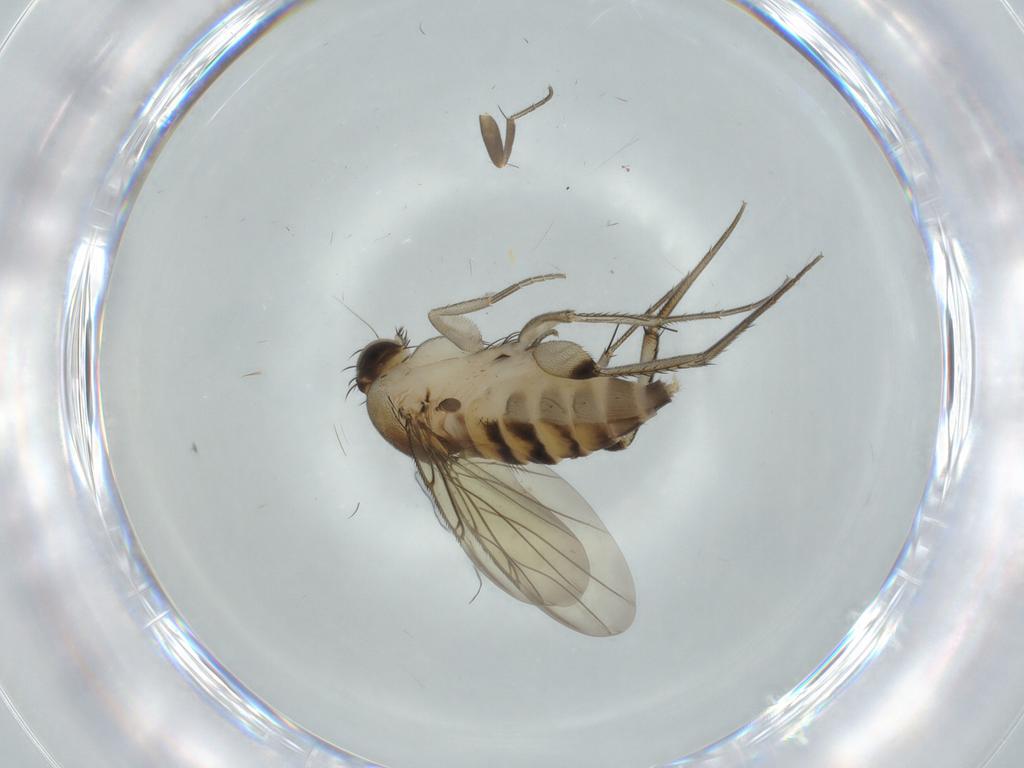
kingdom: Animalia
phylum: Arthropoda
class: Insecta
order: Diptera
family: Phoridae
